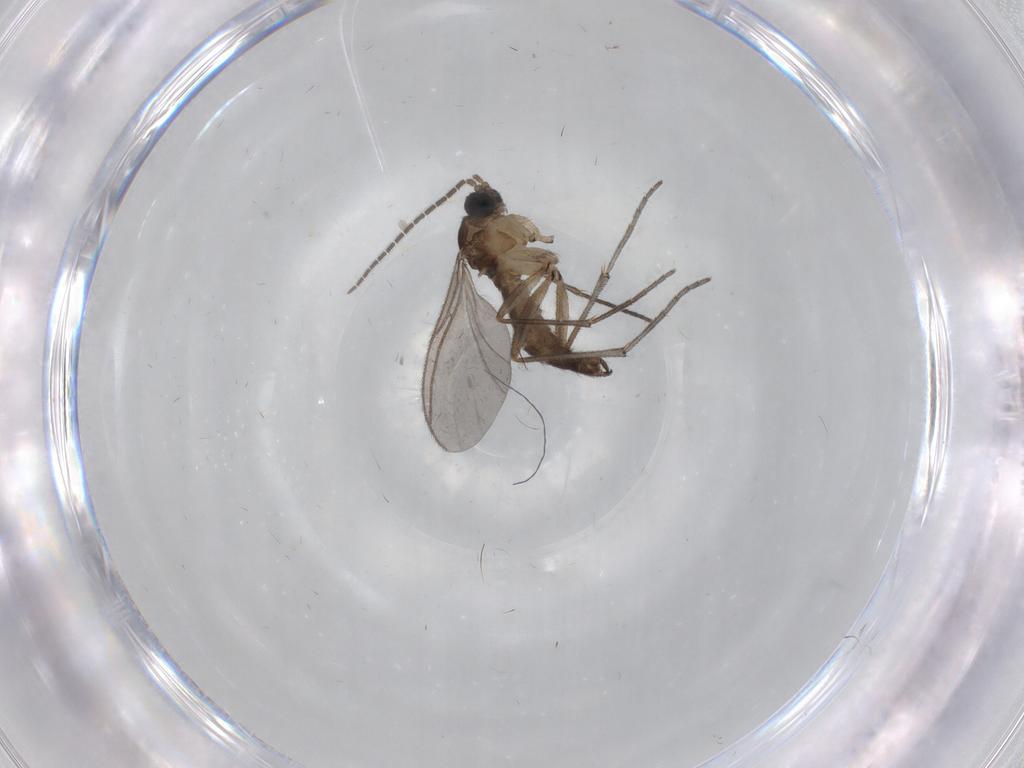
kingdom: Animalia
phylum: Arthropoda
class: Insecta
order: Diptera
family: Sciaridae
